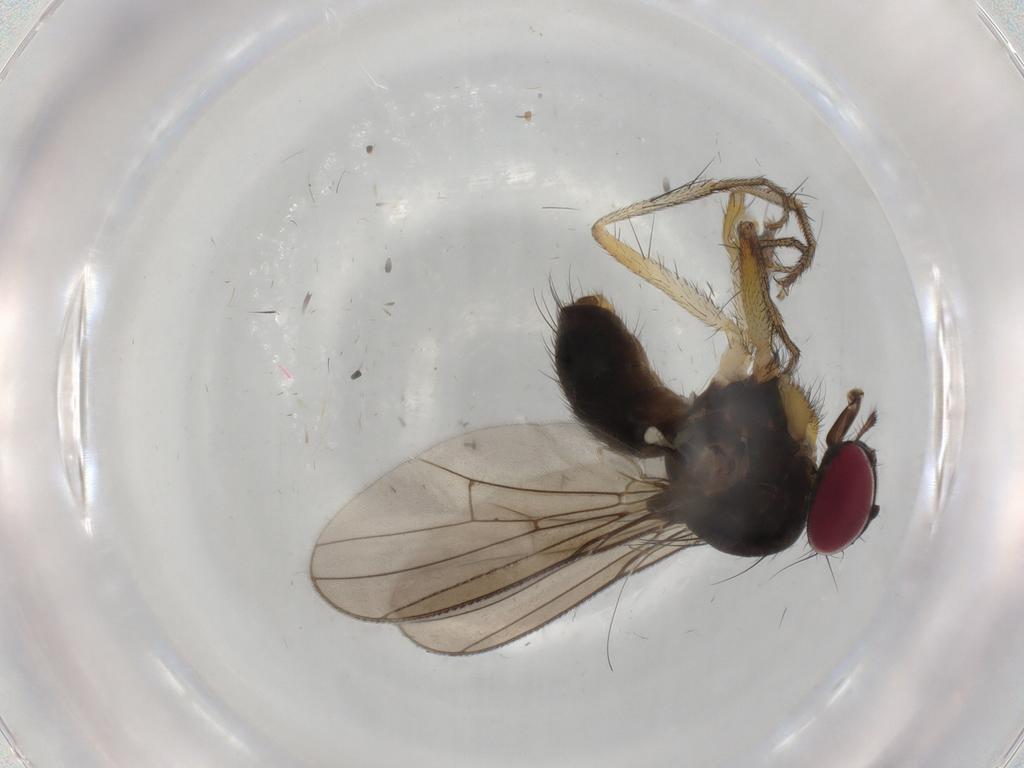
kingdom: Animalia
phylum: Arthropoda
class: Insecta
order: Diptera
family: Anthomyiidae
